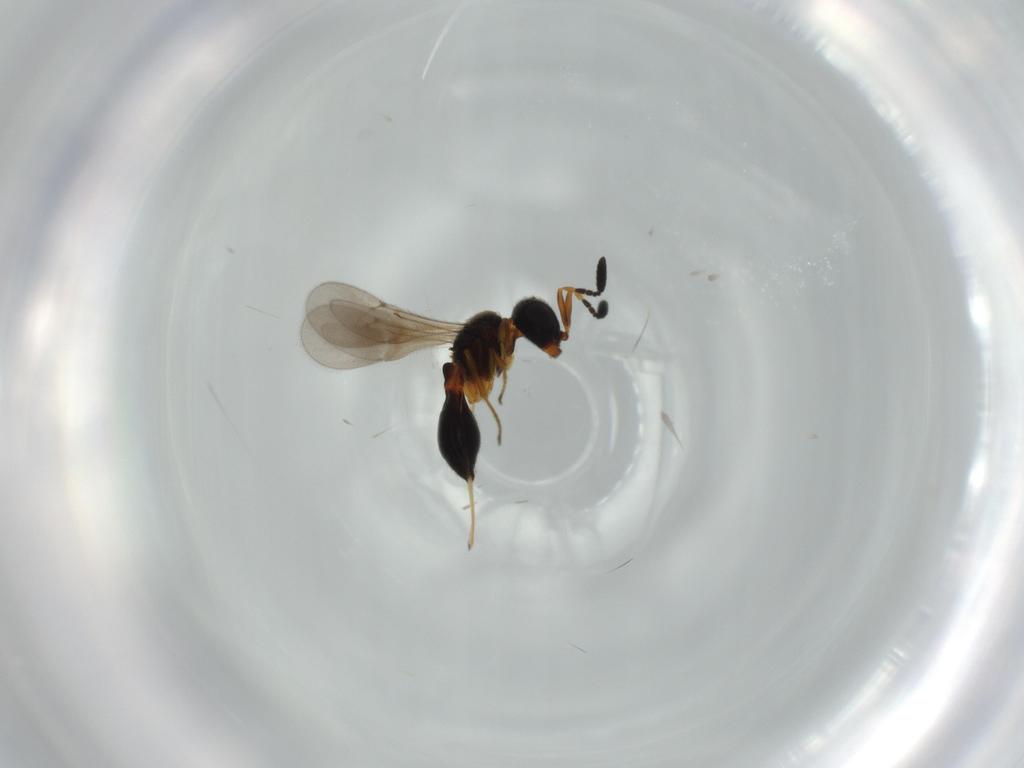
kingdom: Animalia
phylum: Arthropoda
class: Insecta
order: Hymenoptera
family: Scelionidae
